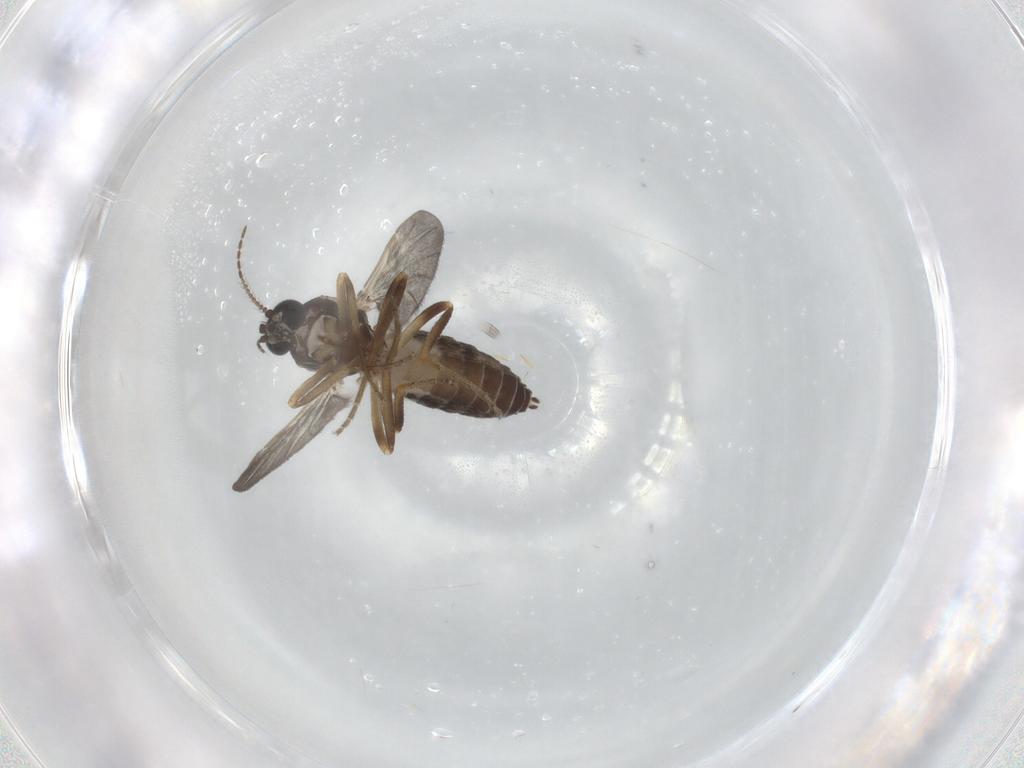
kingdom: Animalia
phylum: Arthropoda
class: Insecta
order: Diptera
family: Ceratopogonidae
